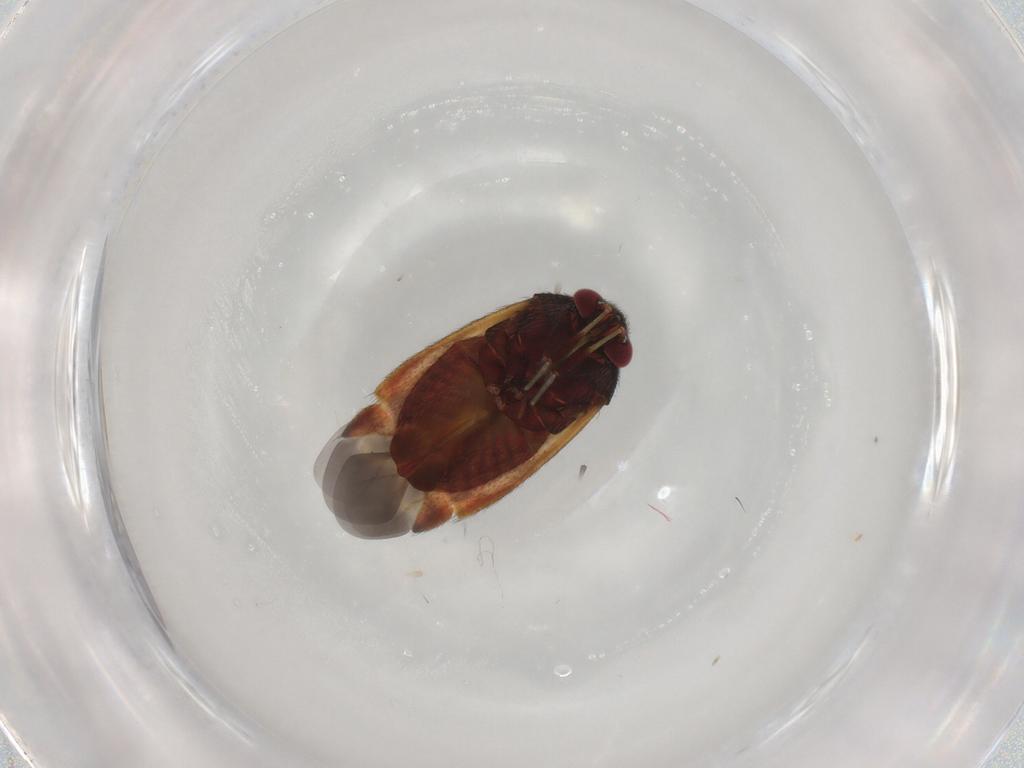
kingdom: Animalia
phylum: Arthropoda
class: Insecta
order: Hemiptera
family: Miridae
